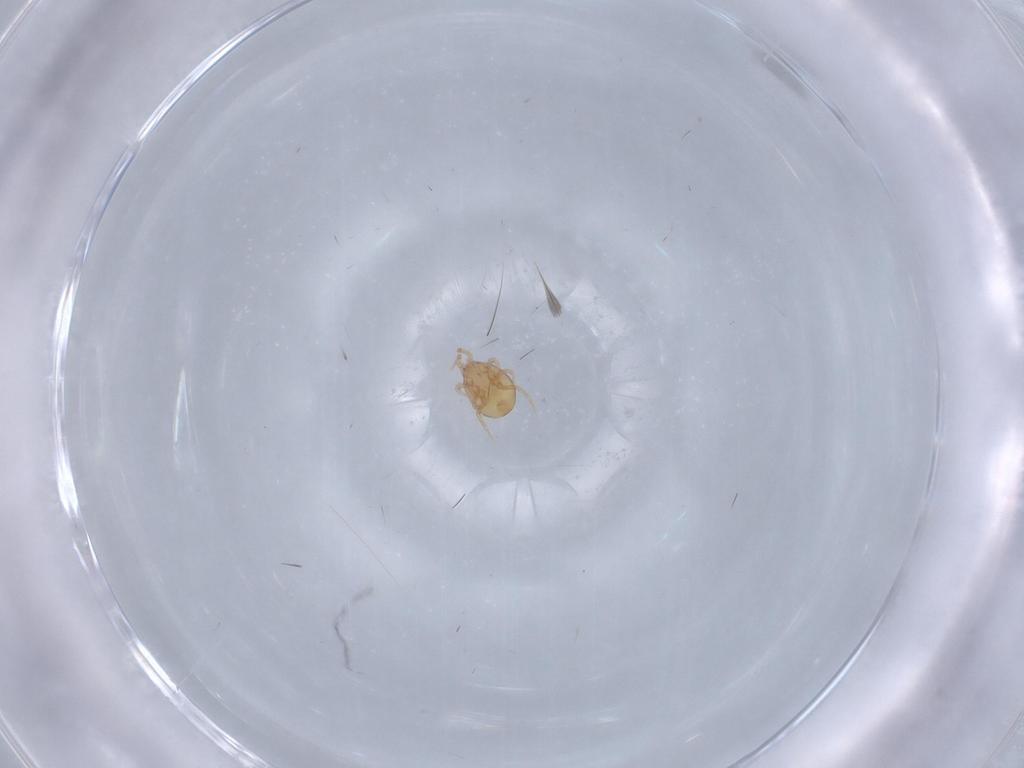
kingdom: Animalia
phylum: Arthropoda
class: Arachnida
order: Mesostigmata
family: Melicharidae
